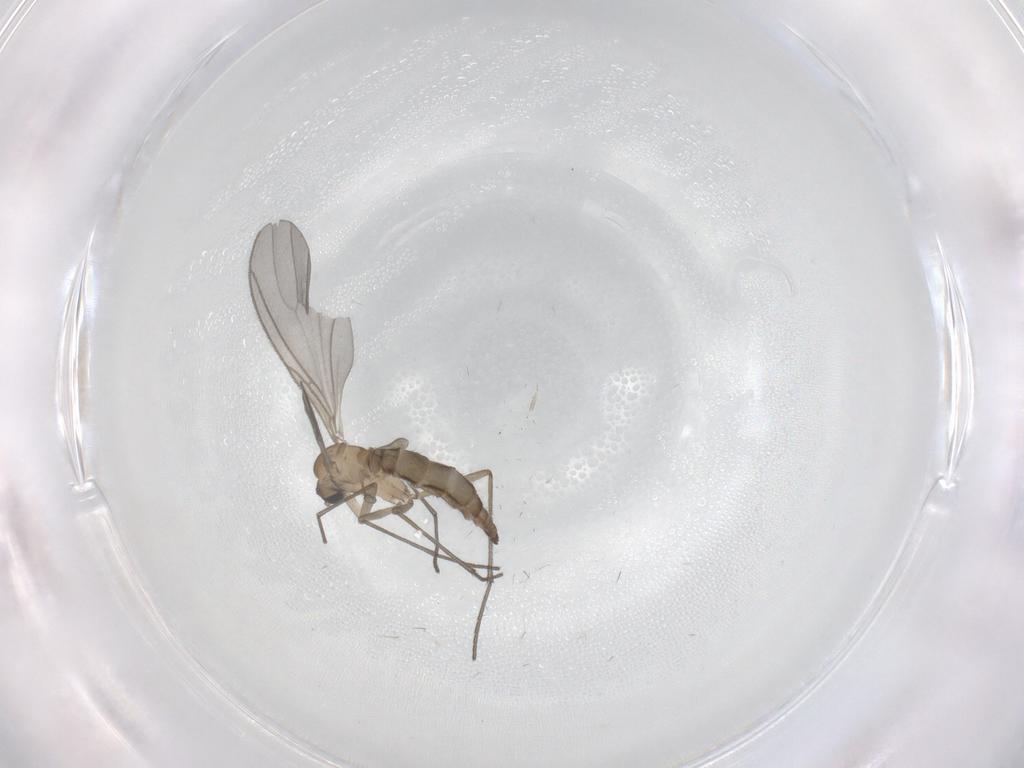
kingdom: Animalia
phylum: Arthropoda
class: Insecta
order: Diptera
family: Sciaridae
